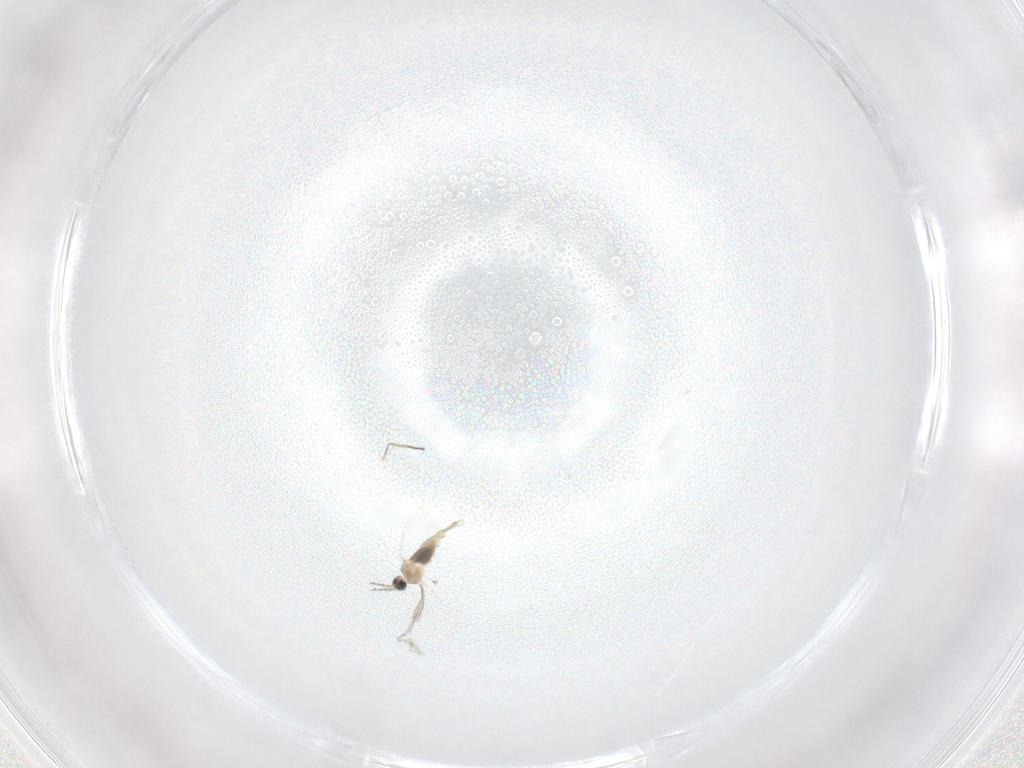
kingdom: Animalia
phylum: Arthropoda
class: Insecta
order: Diptera
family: Cecidomyiidae
